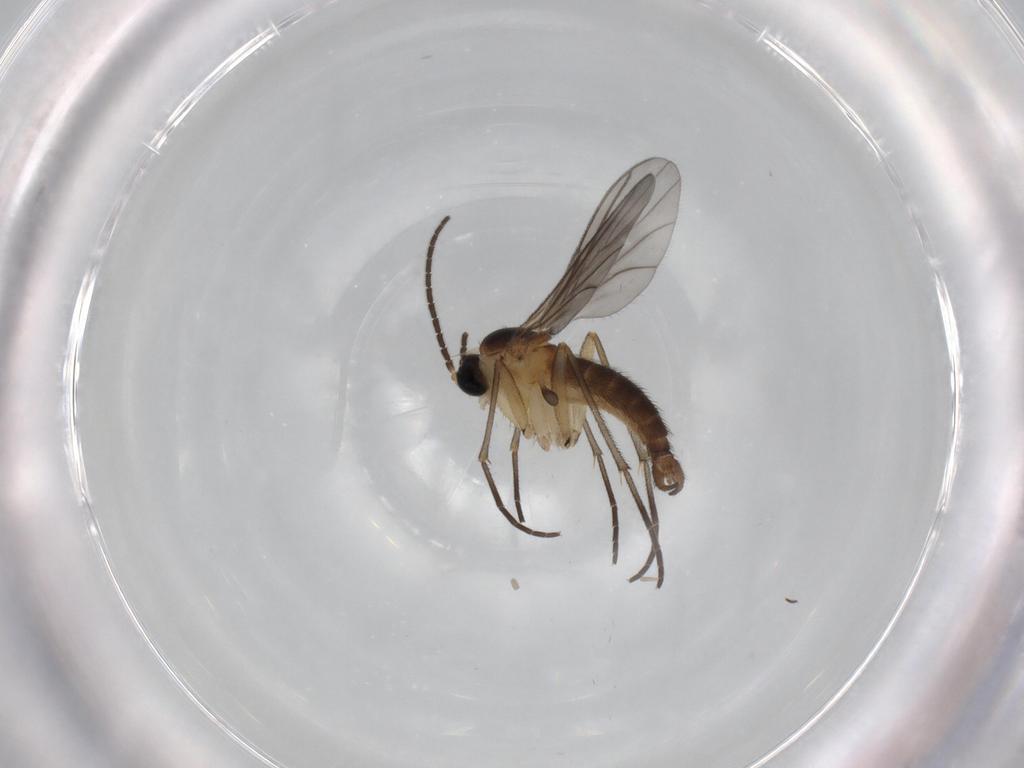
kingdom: Animalia
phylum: Arthropoda
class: Insecta
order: Diptera
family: Sciaridae
